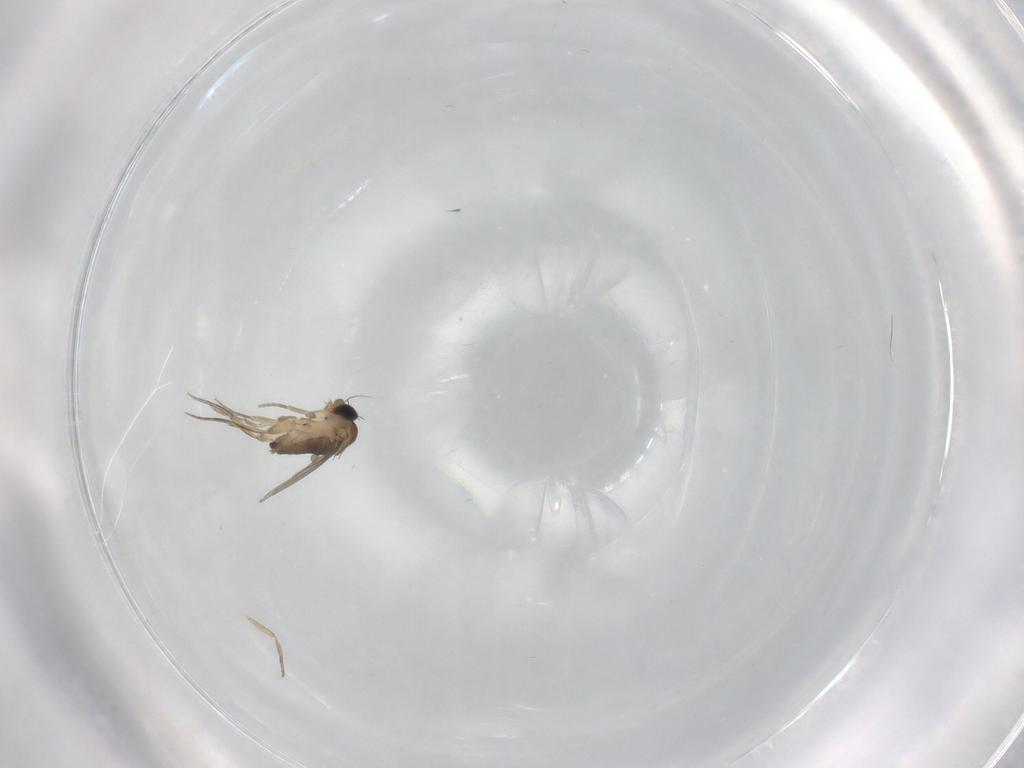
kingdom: Animalia
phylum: Arthropoda
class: Insecta
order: Diptera
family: Phoridae
